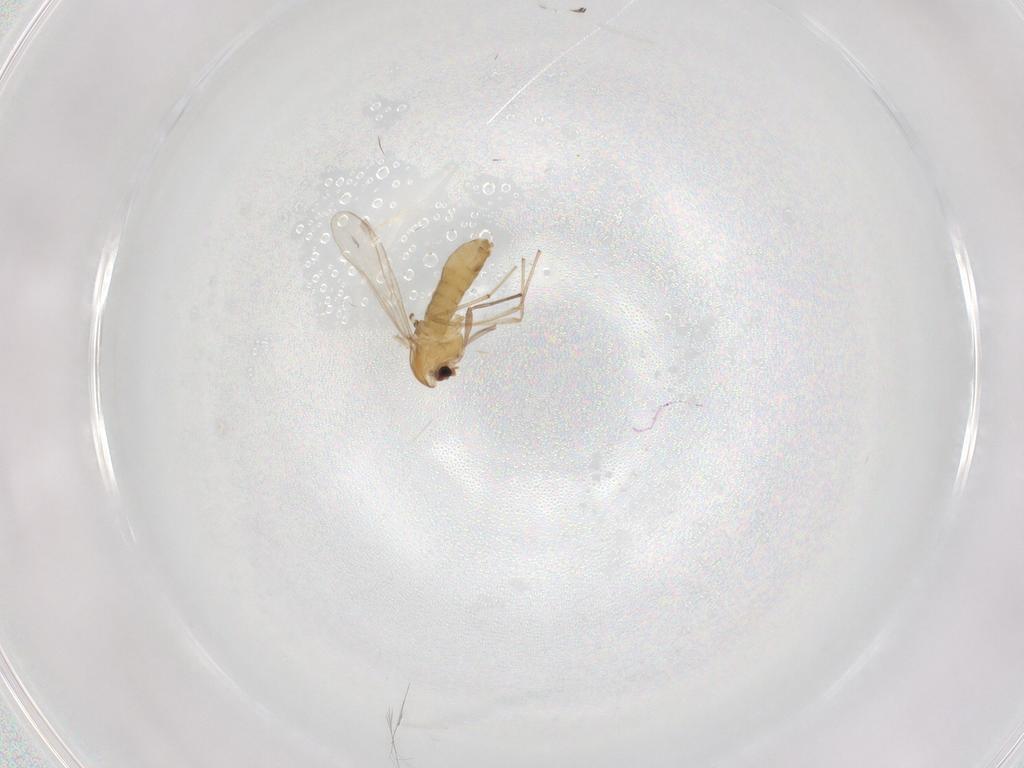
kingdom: Animalia
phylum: Arthropoda
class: Insecta
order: Diptera
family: Chironomidae
